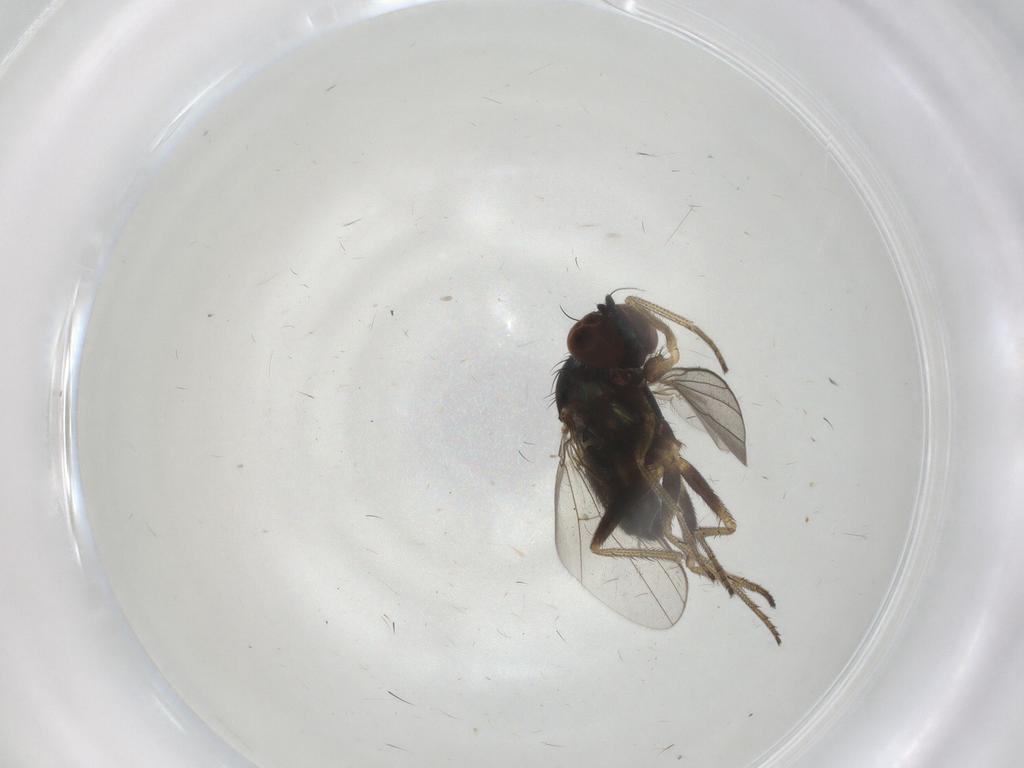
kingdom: Animalia
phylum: Arthropoda
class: Insecta
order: Diptera
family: Dolichopodidae
